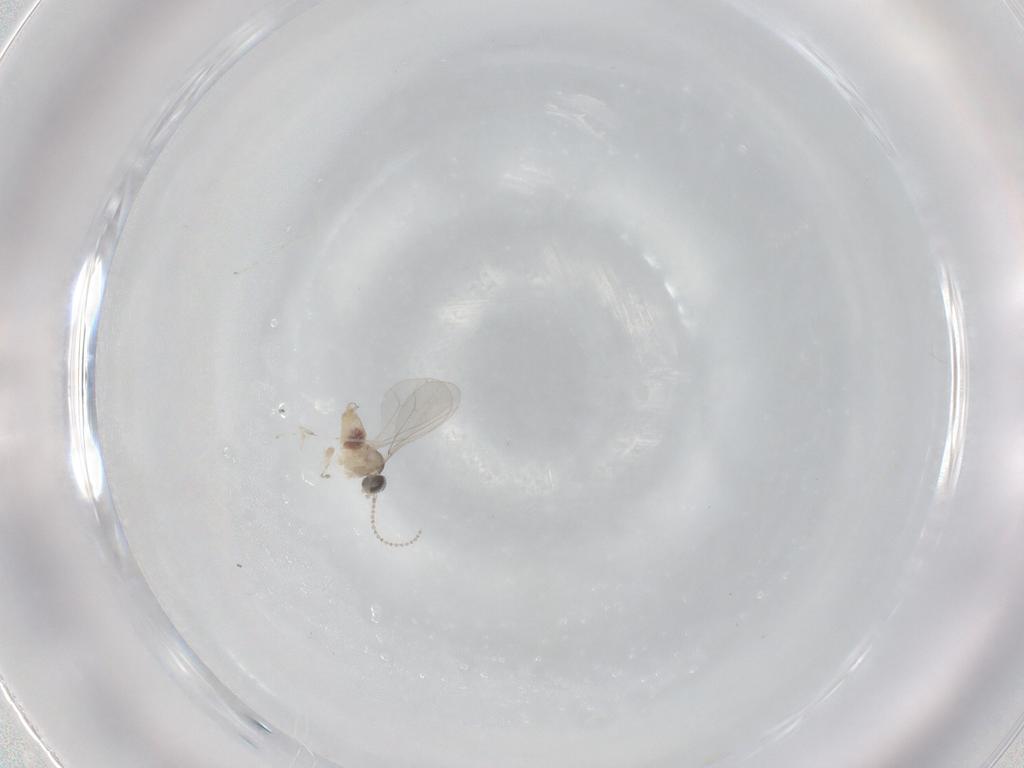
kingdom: Animalia
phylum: Arthropoda
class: Insecta
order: Diptera
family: Cecidomyiidae
